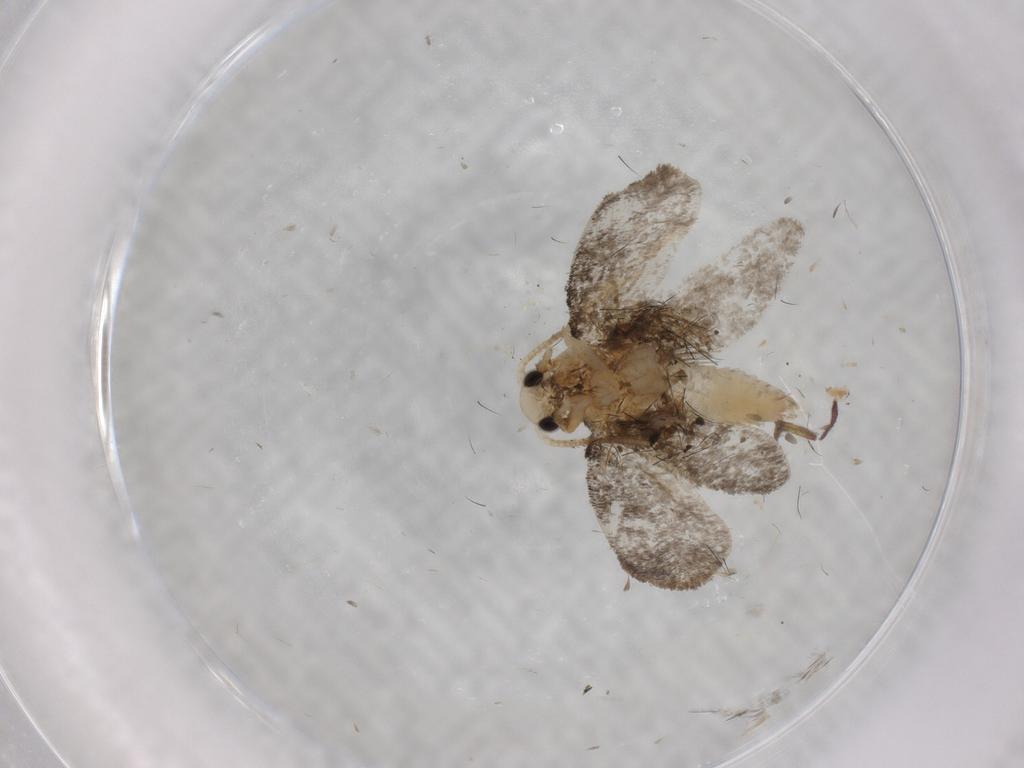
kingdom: Animalia
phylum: Arthropoda
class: Insecta
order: Lepidoptera
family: Psychidae
